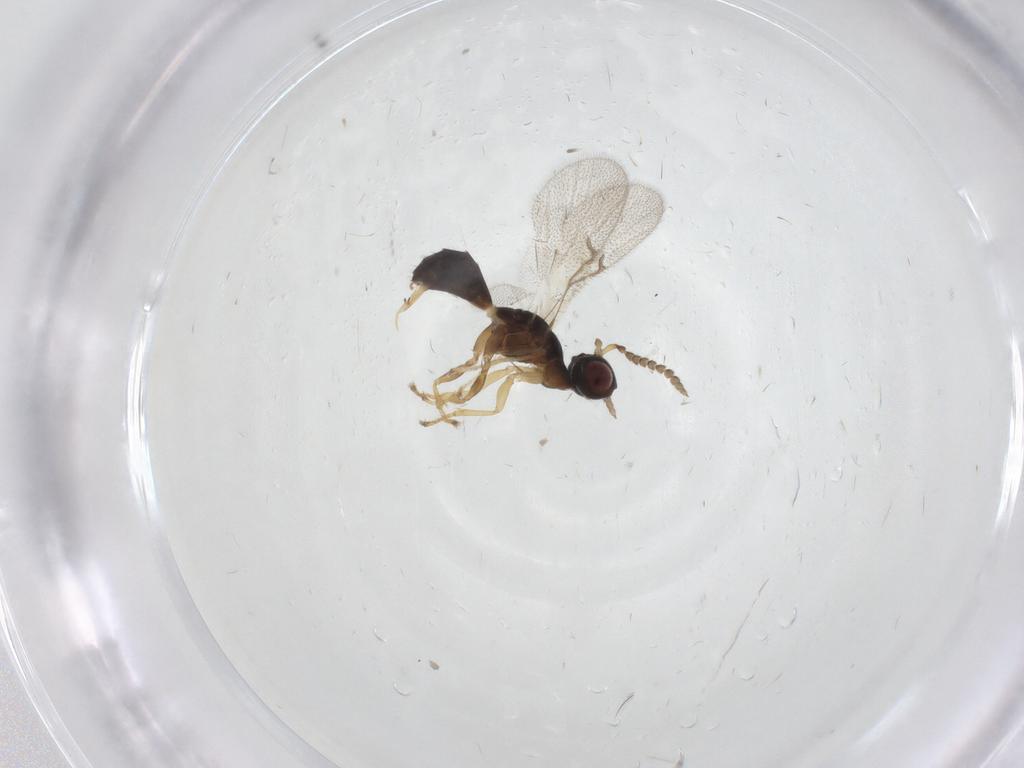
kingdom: Animalia
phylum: Arthropoda
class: Insecta
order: Hymenoptera
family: Agaonidae
